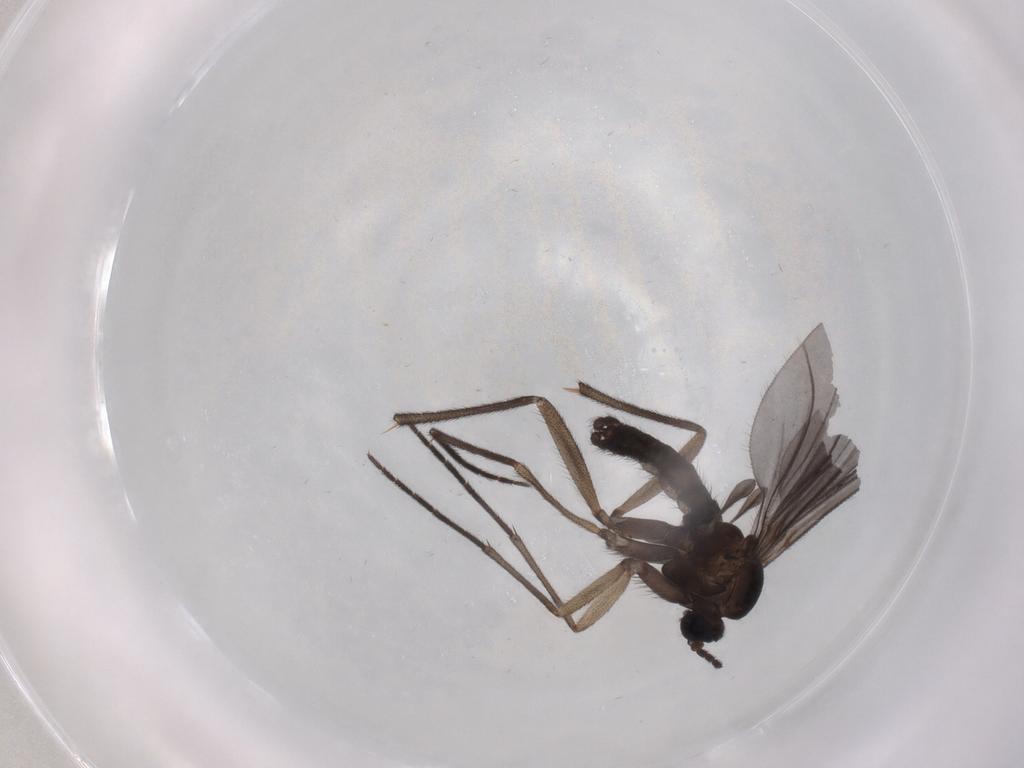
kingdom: Animalia
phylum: Arthropoda
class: Insecta
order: Diptera
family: Sciaridae
